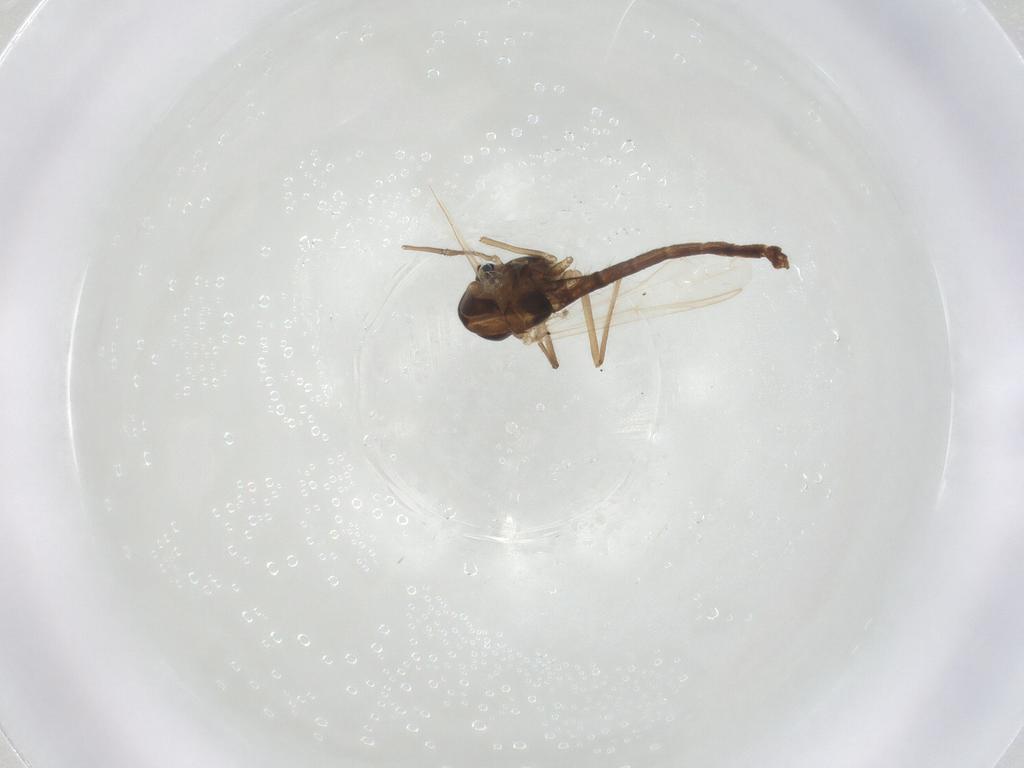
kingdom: Animalia
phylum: Arthropoda
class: Insecta
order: Diptera
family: Chironomidae
